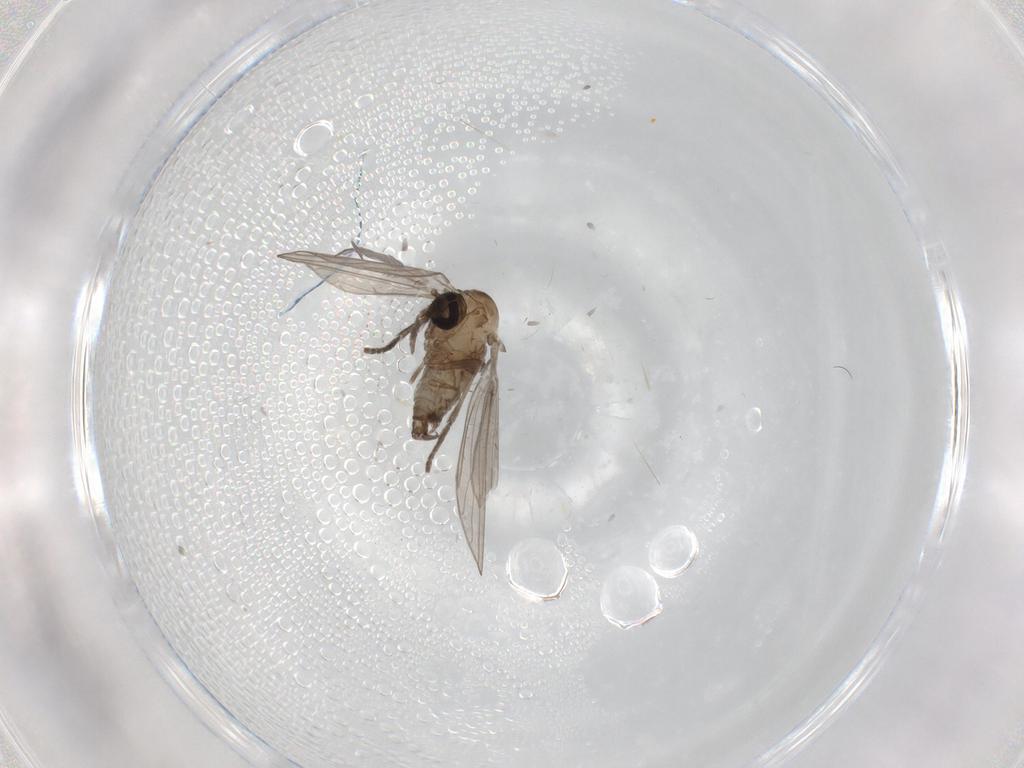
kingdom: Animalia
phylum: Arthropoda
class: Insecta
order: Diptera
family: Psychodidae
